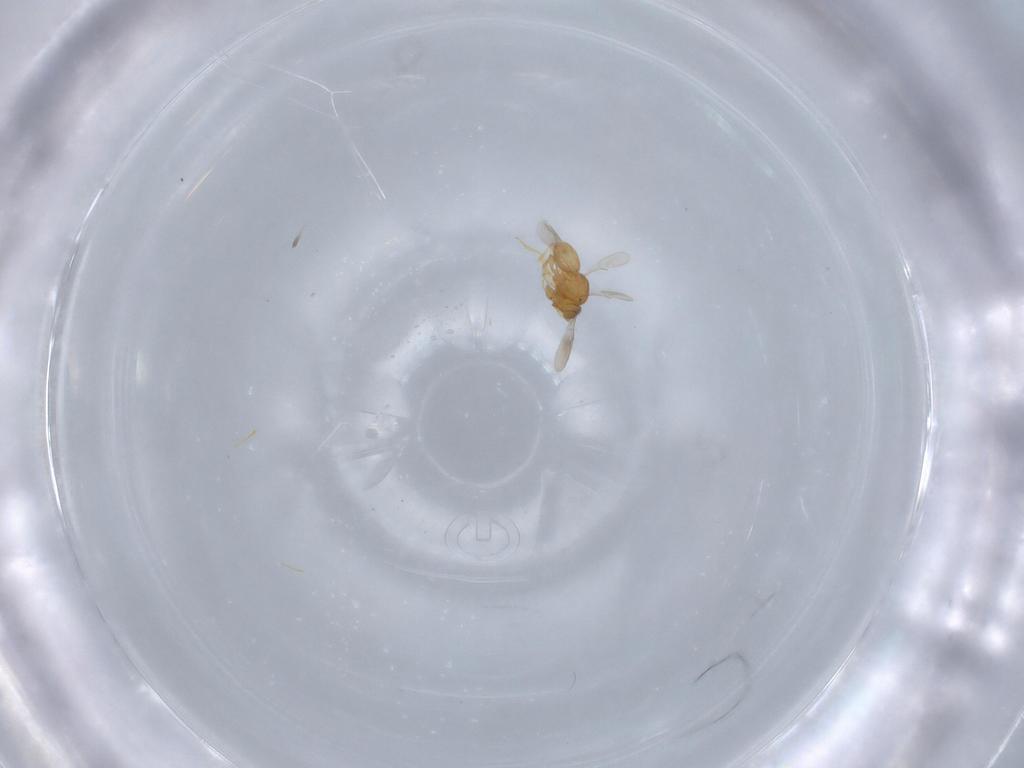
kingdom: Animalia
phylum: Arthropoda
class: Insecta
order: Hymenoptera
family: Scelionidae
